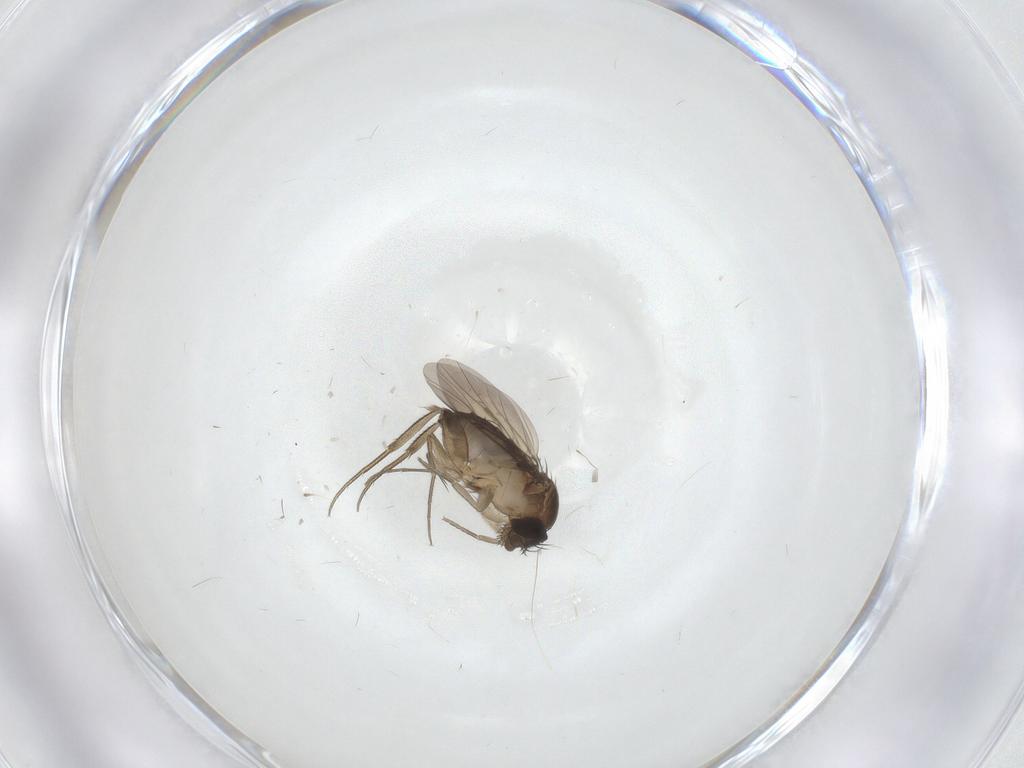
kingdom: Animalia
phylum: Arthropoda
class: Insecta
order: Diptera
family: Phoridae
